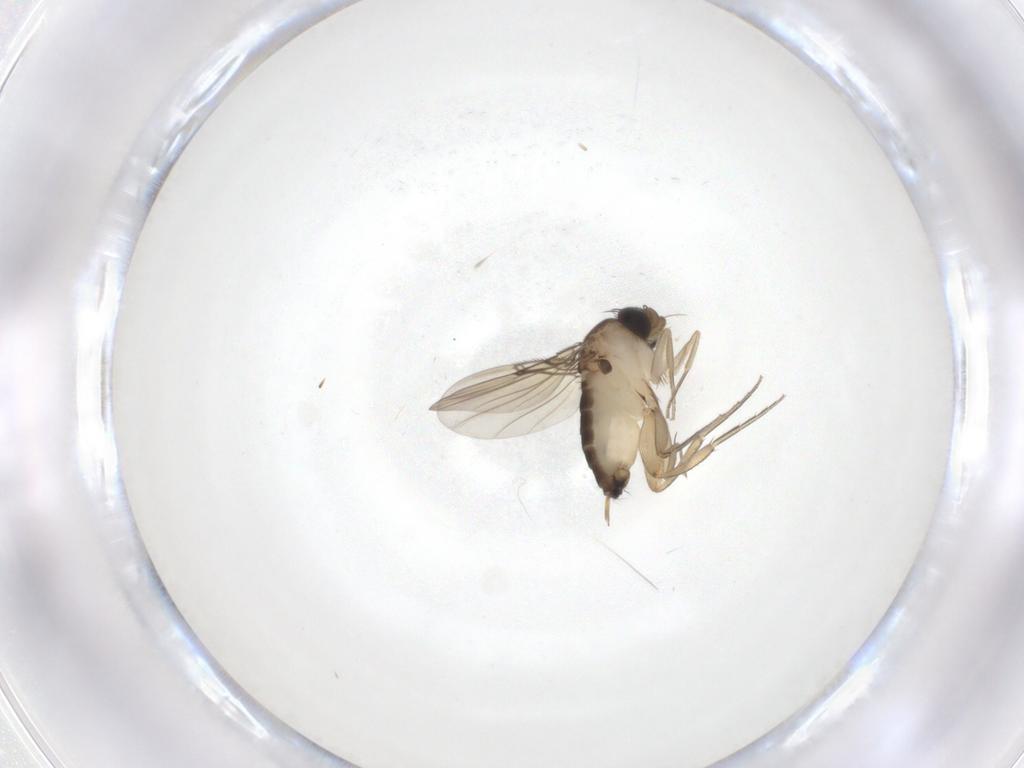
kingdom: Animalia
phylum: Arthropoda
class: Insecta
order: Diptera
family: Phoridae
